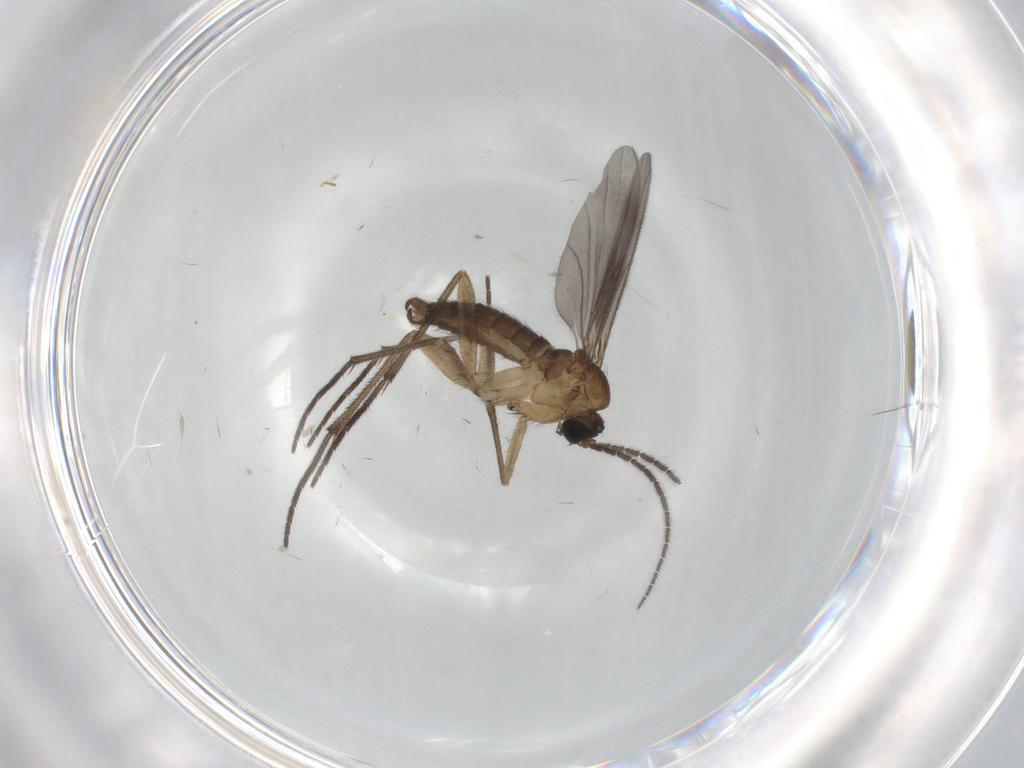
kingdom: Animalia
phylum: Arthropoda
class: Insecta
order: Diptera
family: Sciaridae
